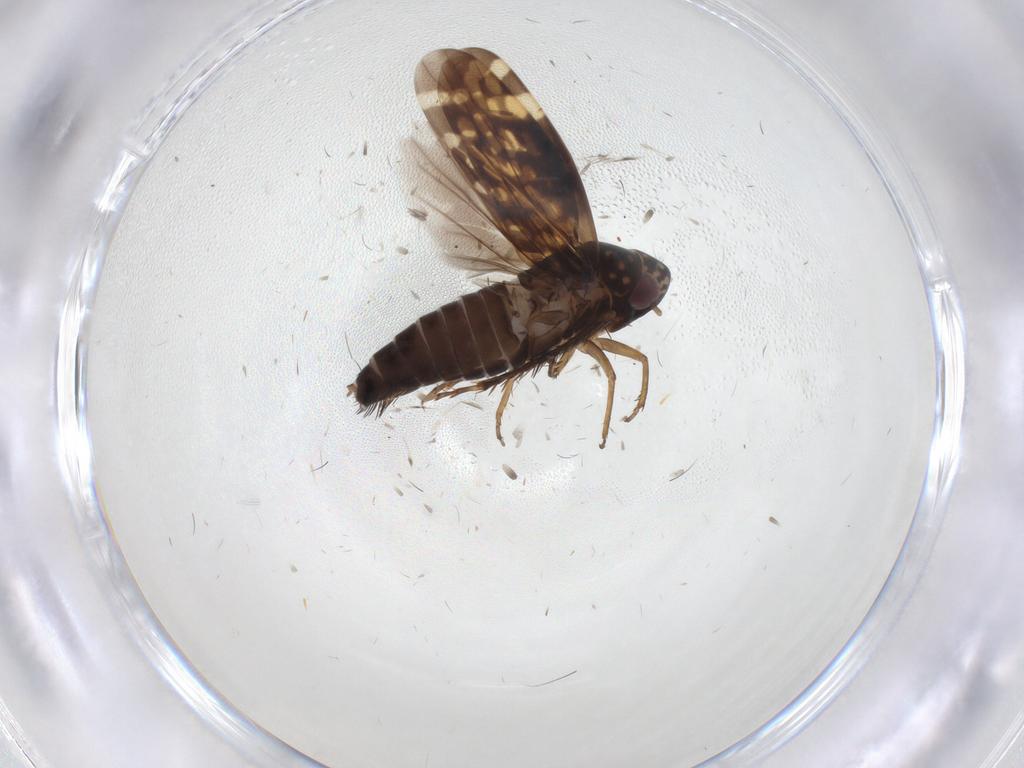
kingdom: Animalia
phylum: Arthropoda
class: Insecta
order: Hemiptera
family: Cicadellidae
